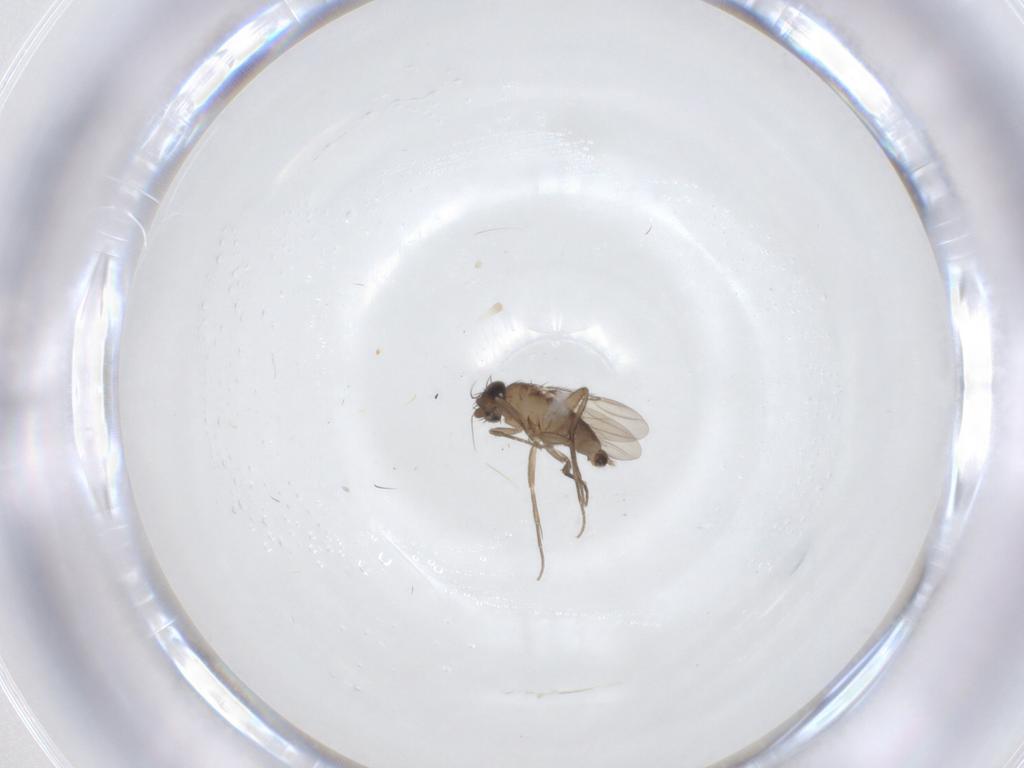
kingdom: Animalia
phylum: Arthropoda
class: Insecta
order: Diptera
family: Phoridae
